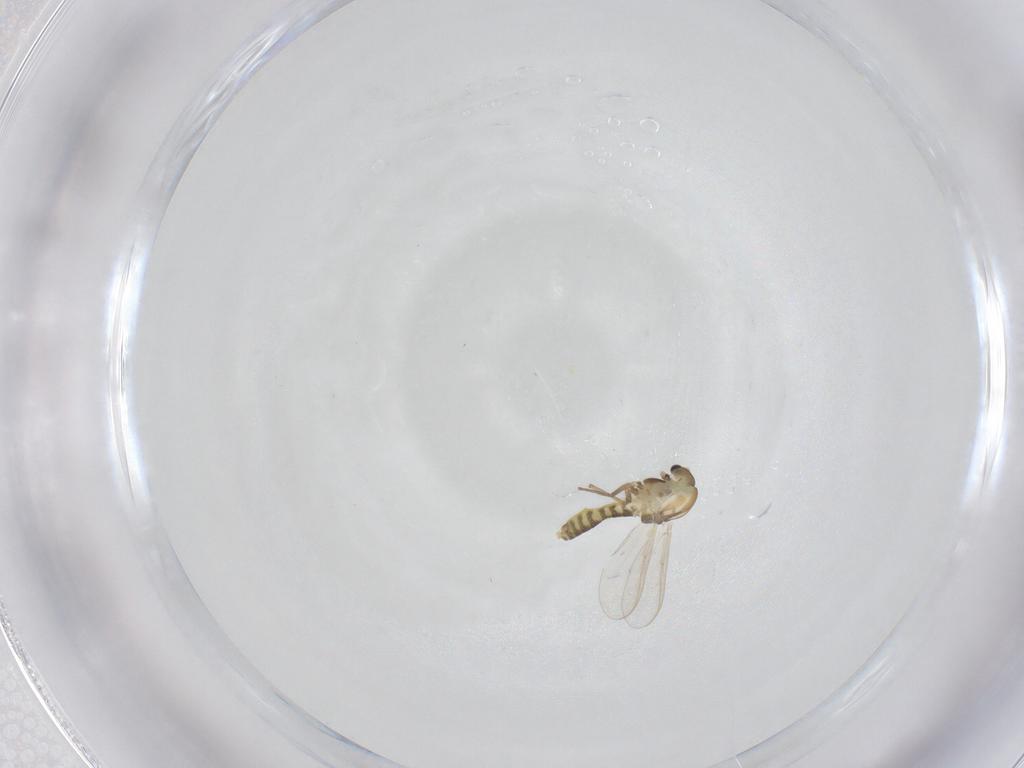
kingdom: Animalia
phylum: Arthropoda
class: Insecta
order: Diptera
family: Chironomidae
